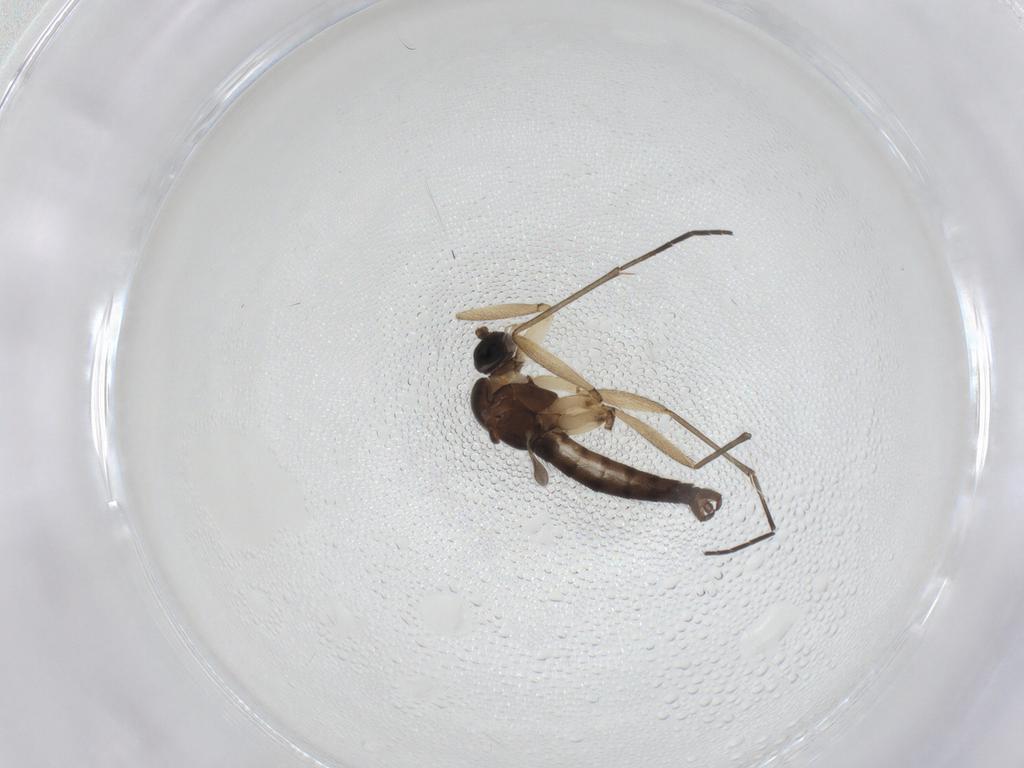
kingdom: Animalia
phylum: Arthropoda
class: Insecta
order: Diptera
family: Sciaridae
